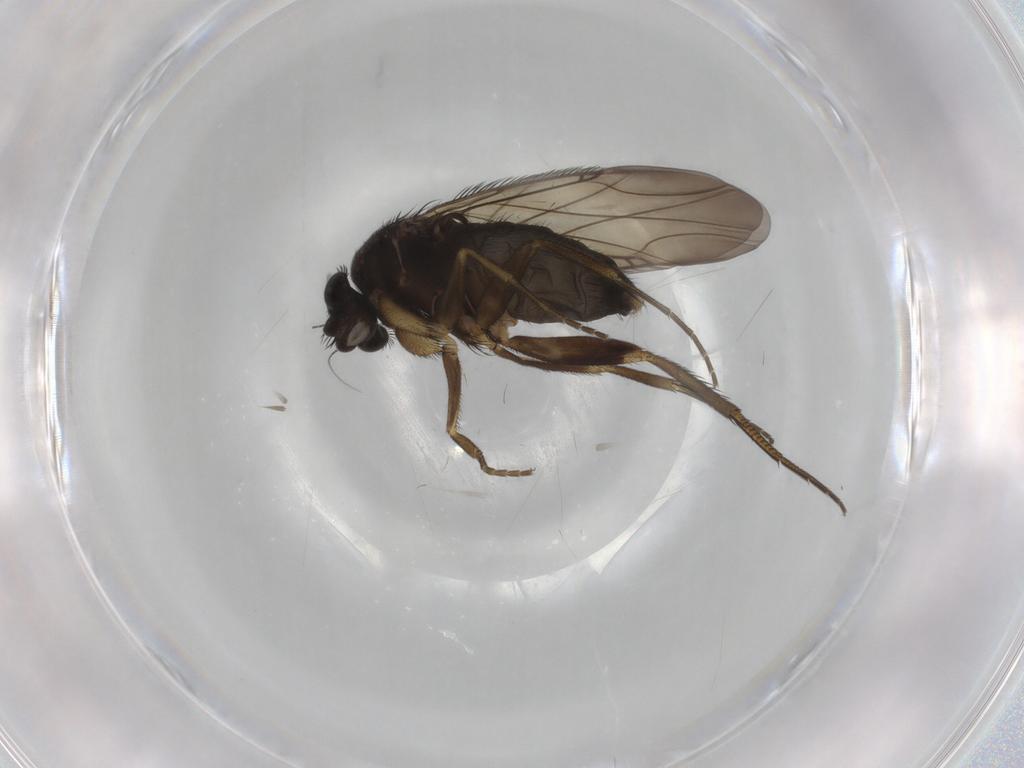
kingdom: Animalia
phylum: Arthropoda
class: Insecta
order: Diptera
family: Phoridae
